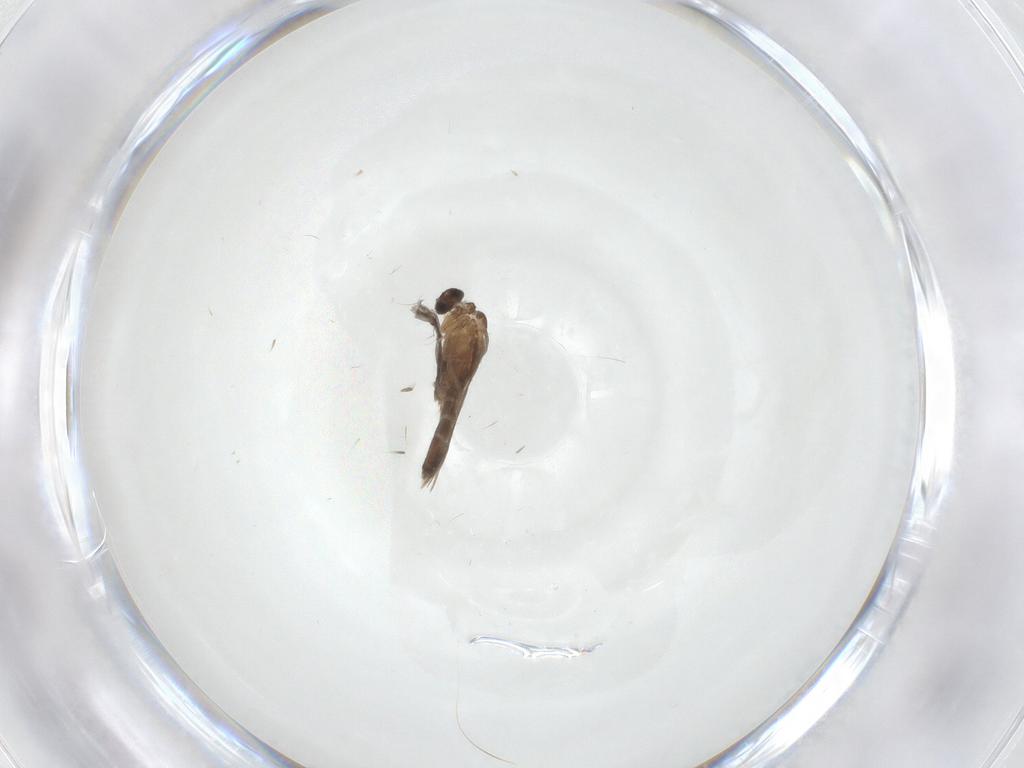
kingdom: Animalia
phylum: Arthropoda
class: Insecta
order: Diptera
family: Cecidomyiidae
